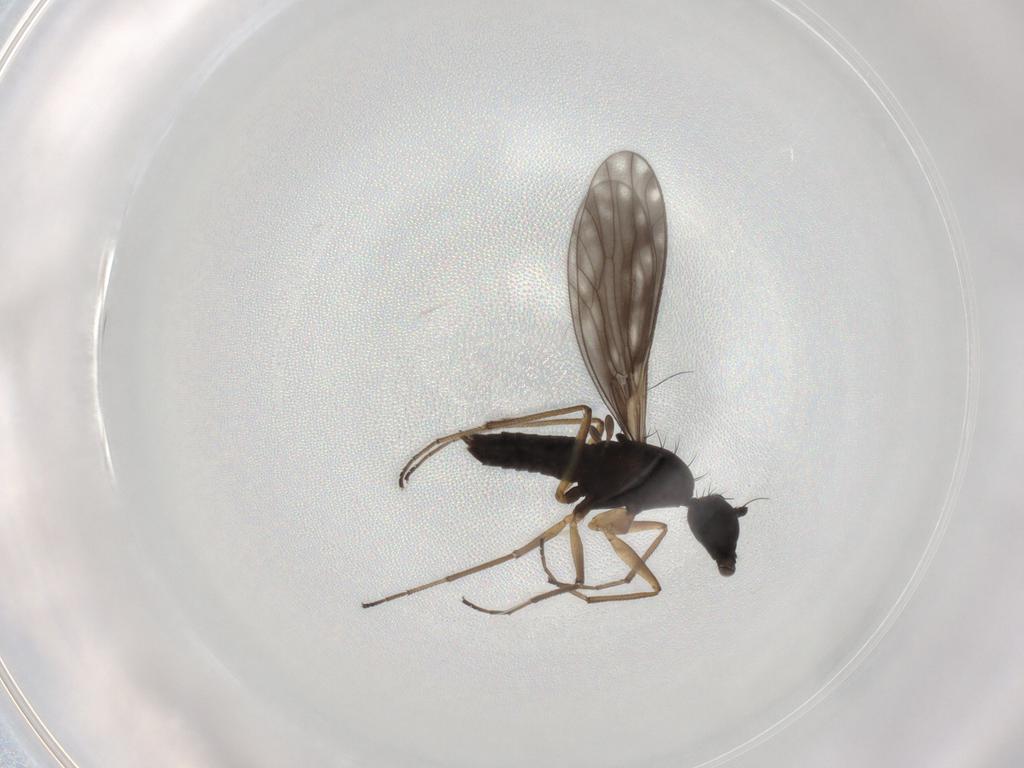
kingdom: Animalia
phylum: Arthropoda
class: Insecta
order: Diptera
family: Empididae
